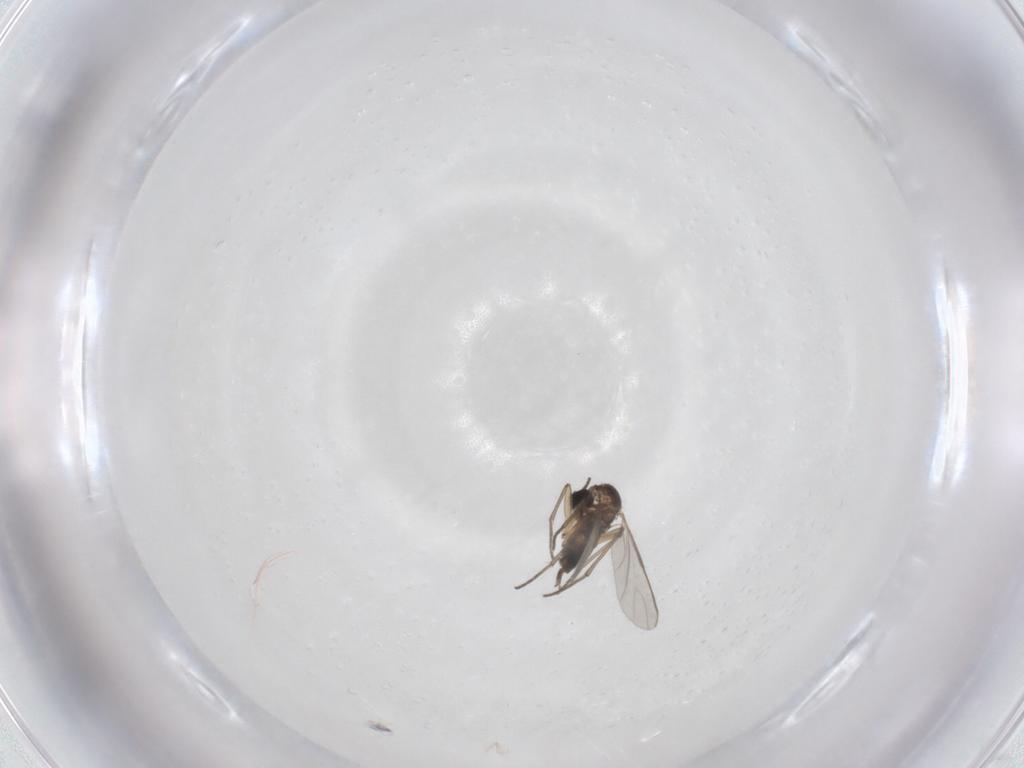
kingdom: Animalia
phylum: Arthropoda
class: Insecta
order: Diptera
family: Sciaridae
